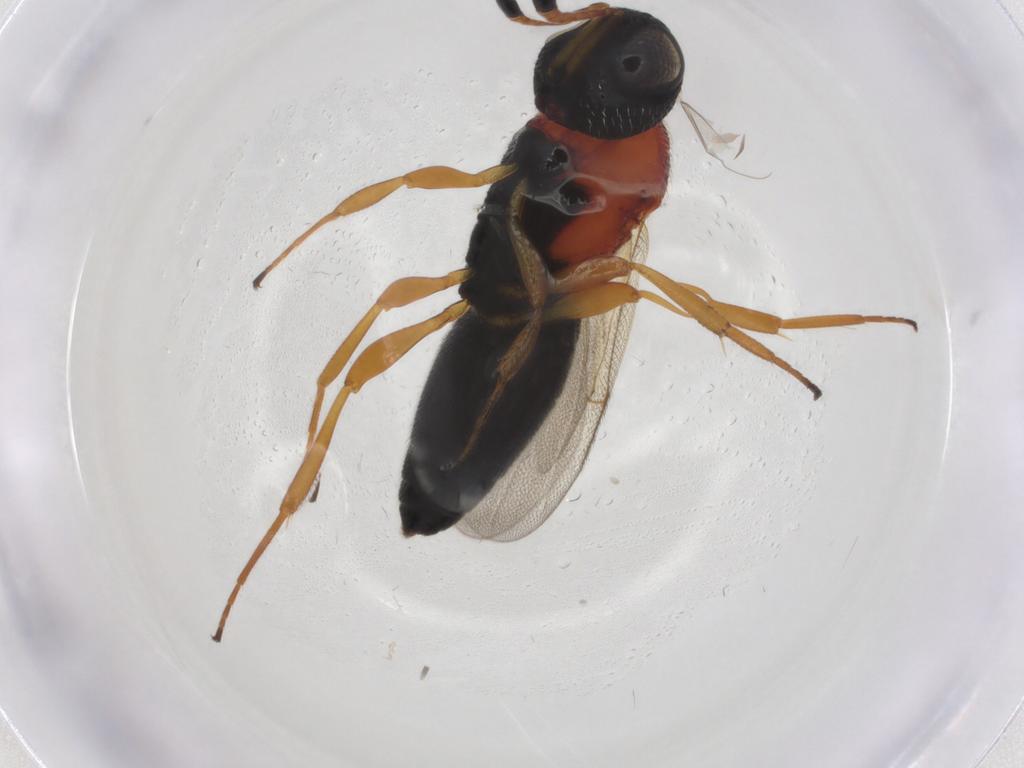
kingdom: Animalia
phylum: Arthropoda
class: Insecta
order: Hymenoptera
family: Scelionidae
